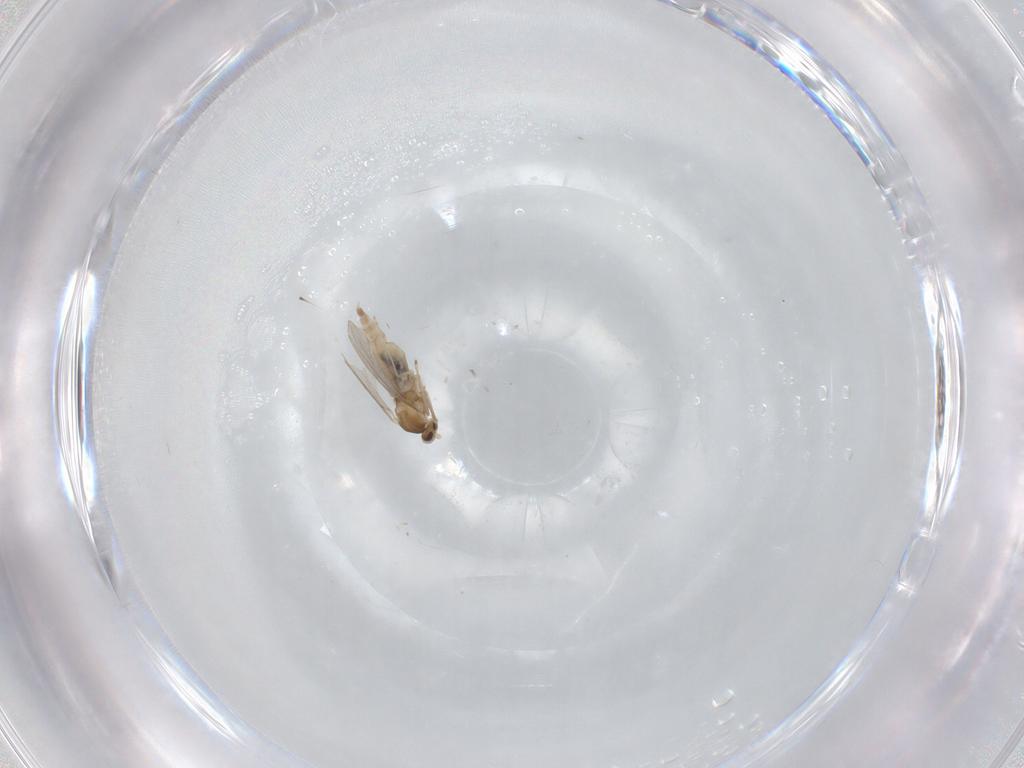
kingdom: Animalia
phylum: Arthropoda
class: Insecta
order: Diptera
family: Cecidomyiidae
